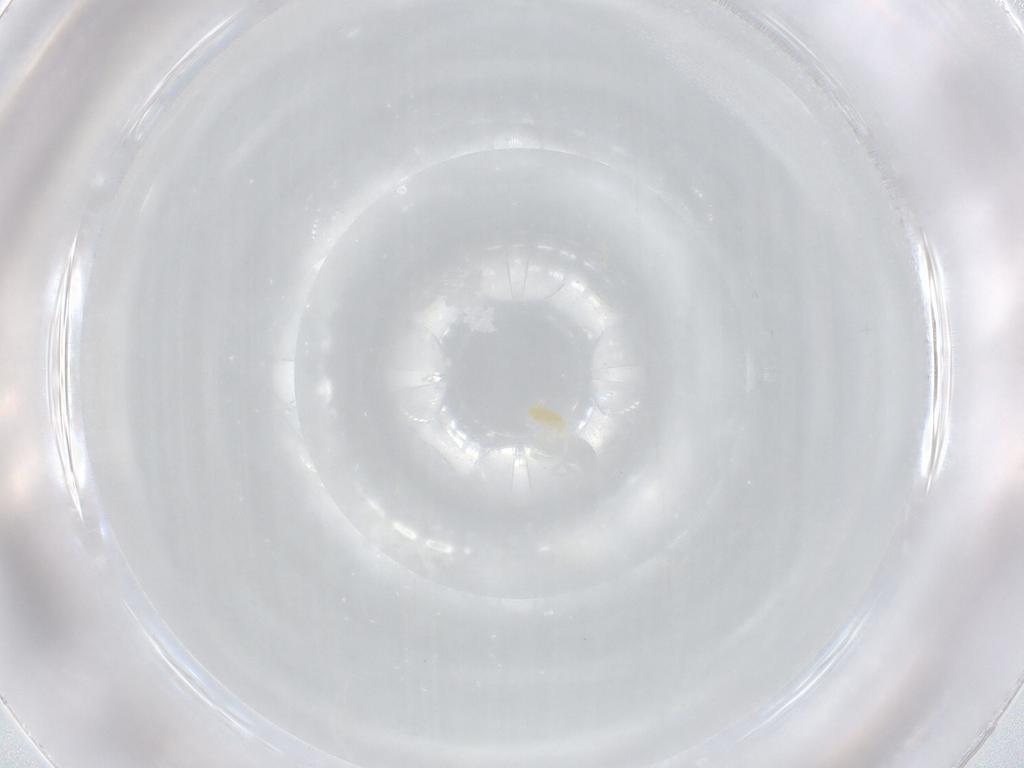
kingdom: Animalia
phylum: Arthropoda
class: Arachnida
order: Trombidiformes
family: Eupodidae
